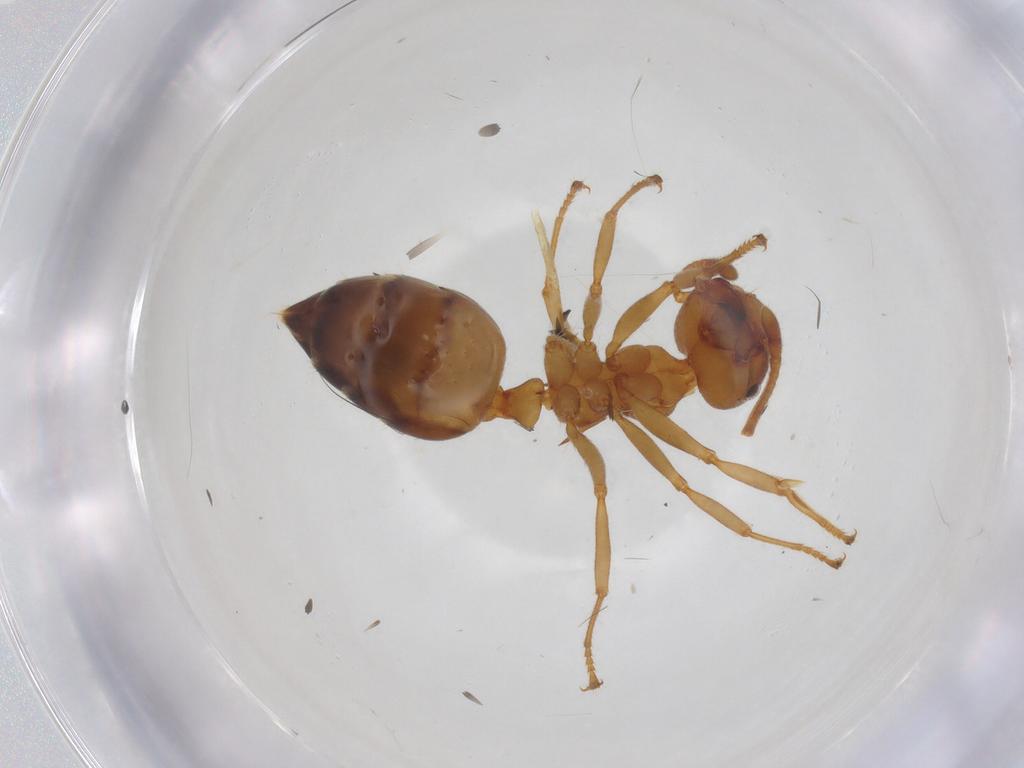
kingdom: Animalia
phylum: Arthropoda
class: Insecta
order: Hymenoptera
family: Formicidae
